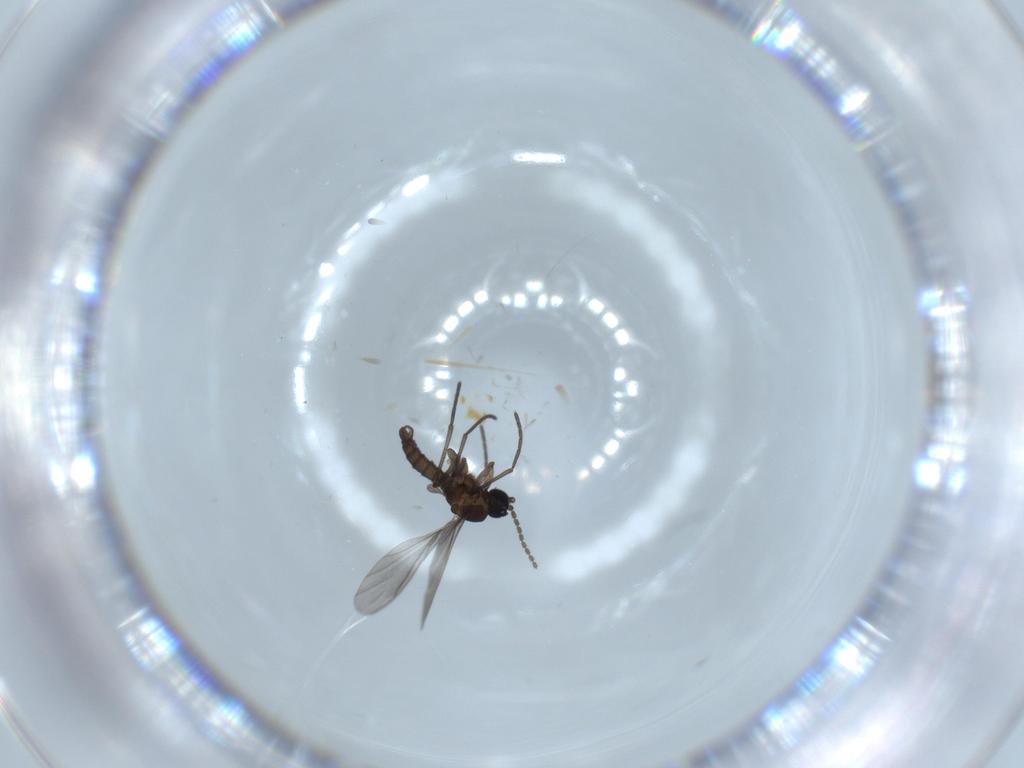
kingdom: Animalia
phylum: Arthropoda
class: Insecta
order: Diptera
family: Sciaridae
